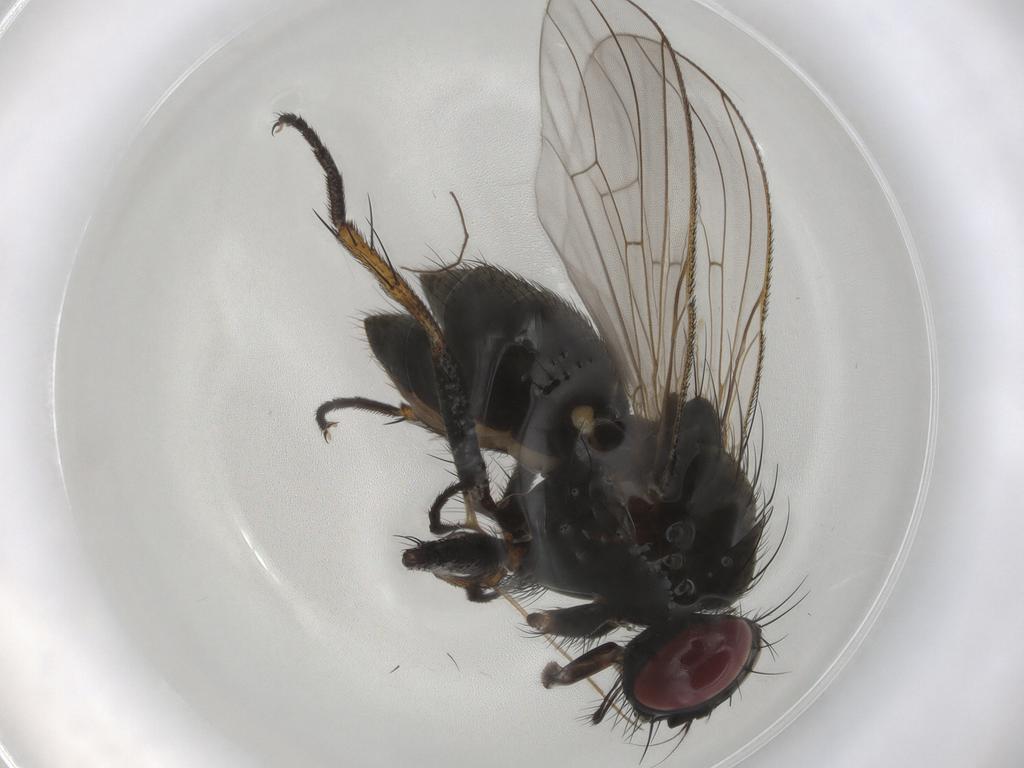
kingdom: Animalia
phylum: Arthropoda
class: Insecta
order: Diptera
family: Muscidae
